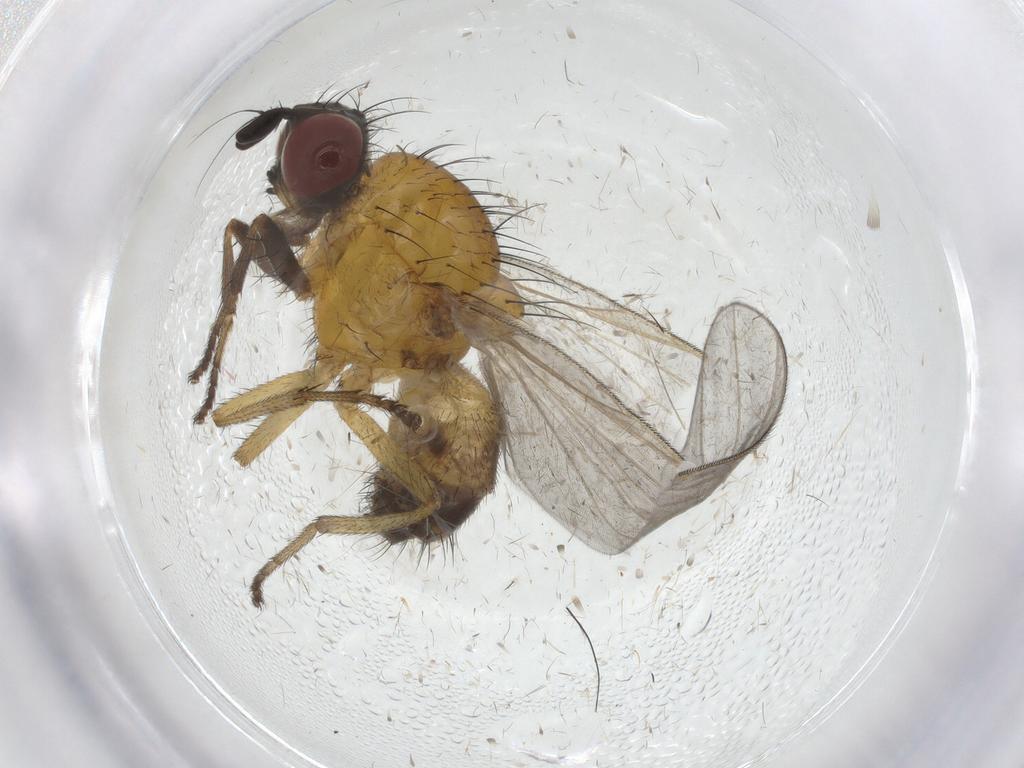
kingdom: Animalia
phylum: Arthropoda
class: Insecta
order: Diptera
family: Sciaridae
